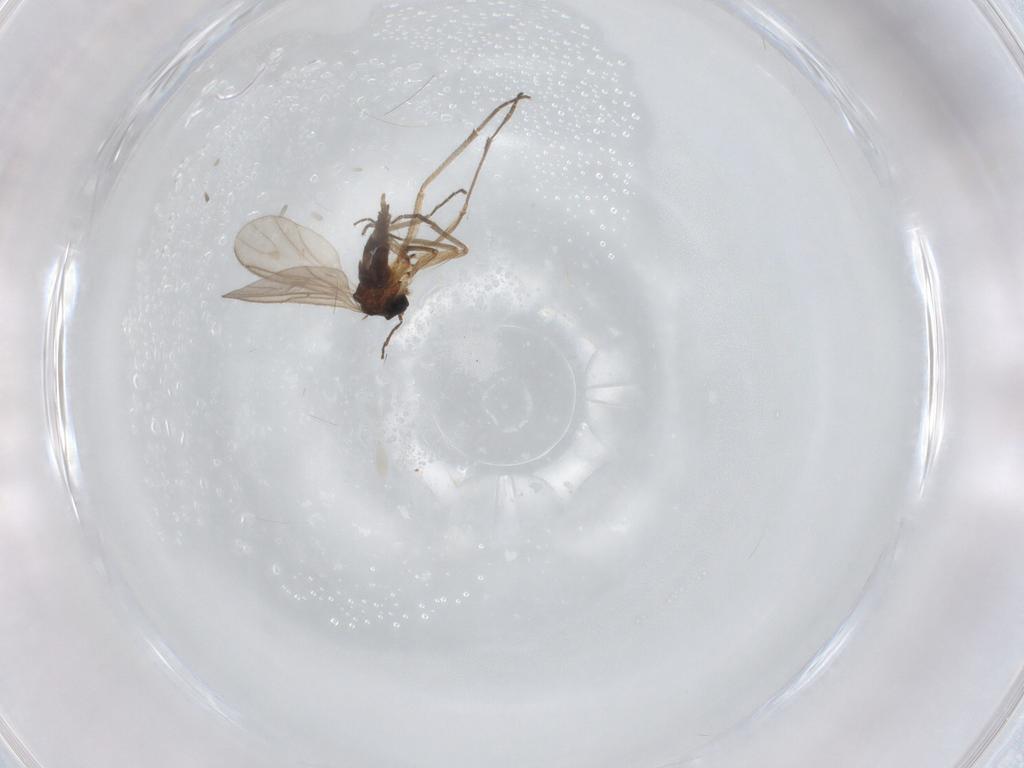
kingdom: Animalia
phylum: Arthropoda
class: Insecta
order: Diptera
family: Sciaridae
